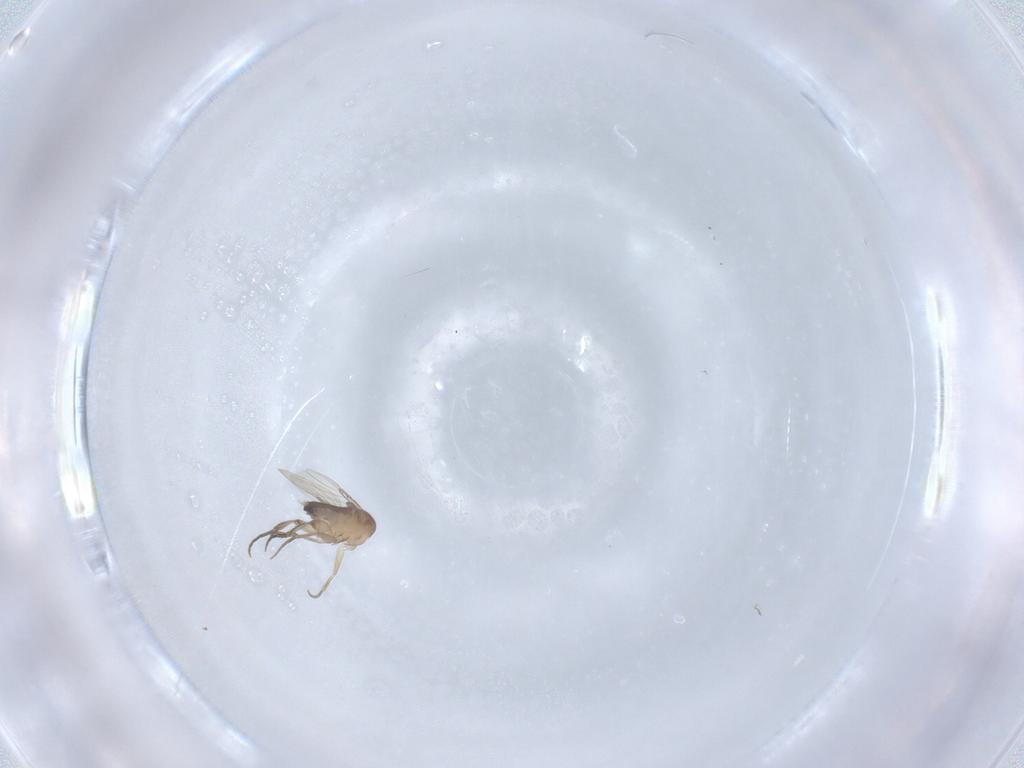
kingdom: Animalia
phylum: Arthropoda
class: Insecta
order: Diptera
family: Phoridae
